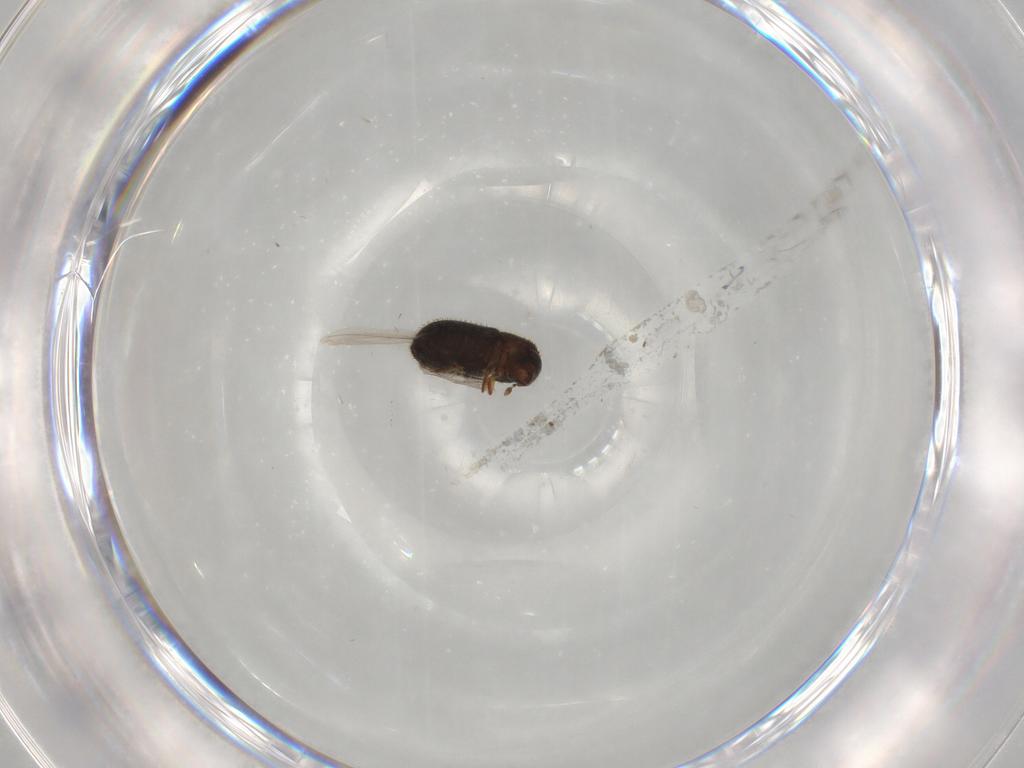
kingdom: Animalia
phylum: Arthropoda
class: Insecta
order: Coleoptera
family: Curculionidae
